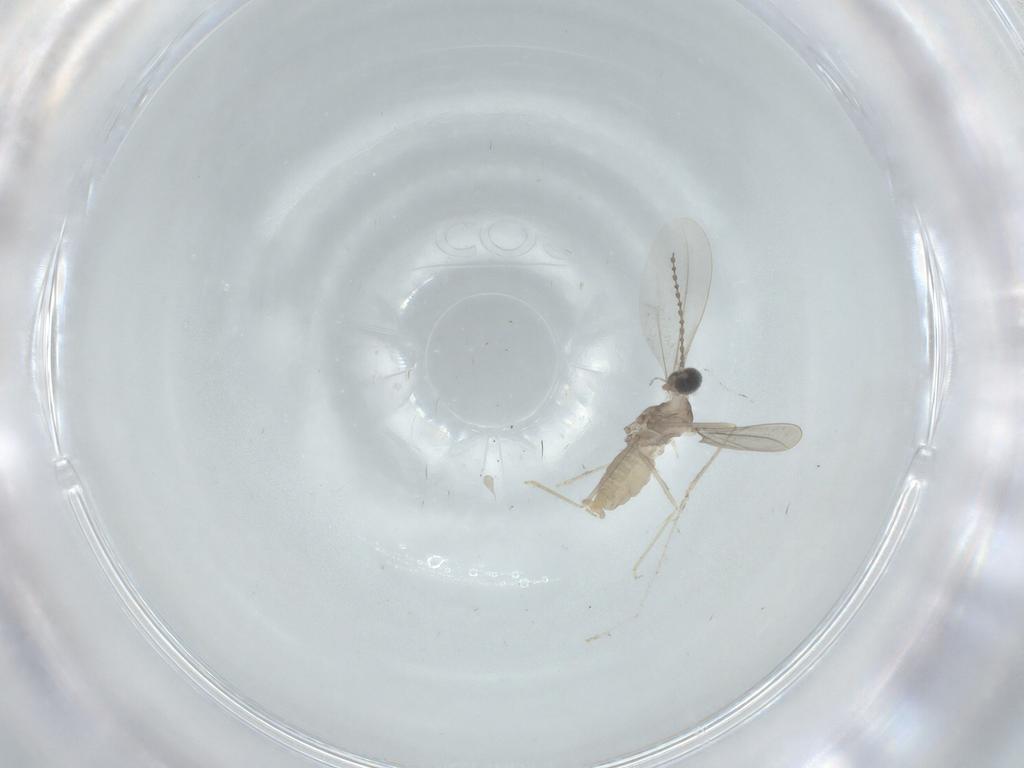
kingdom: Animalia
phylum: Arthropoda
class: Insecta
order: Diptera
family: Cecidomyiidae
